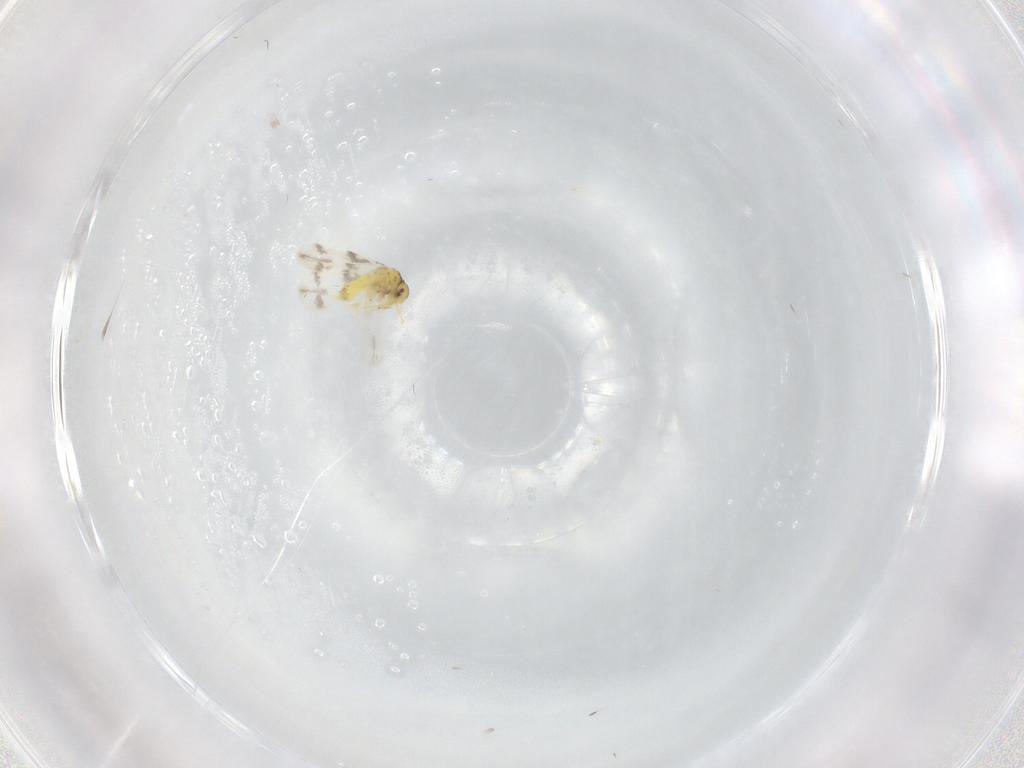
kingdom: Animalia
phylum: Arthropoda
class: Insecta
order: Hemiptera
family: Aleyrodidae
